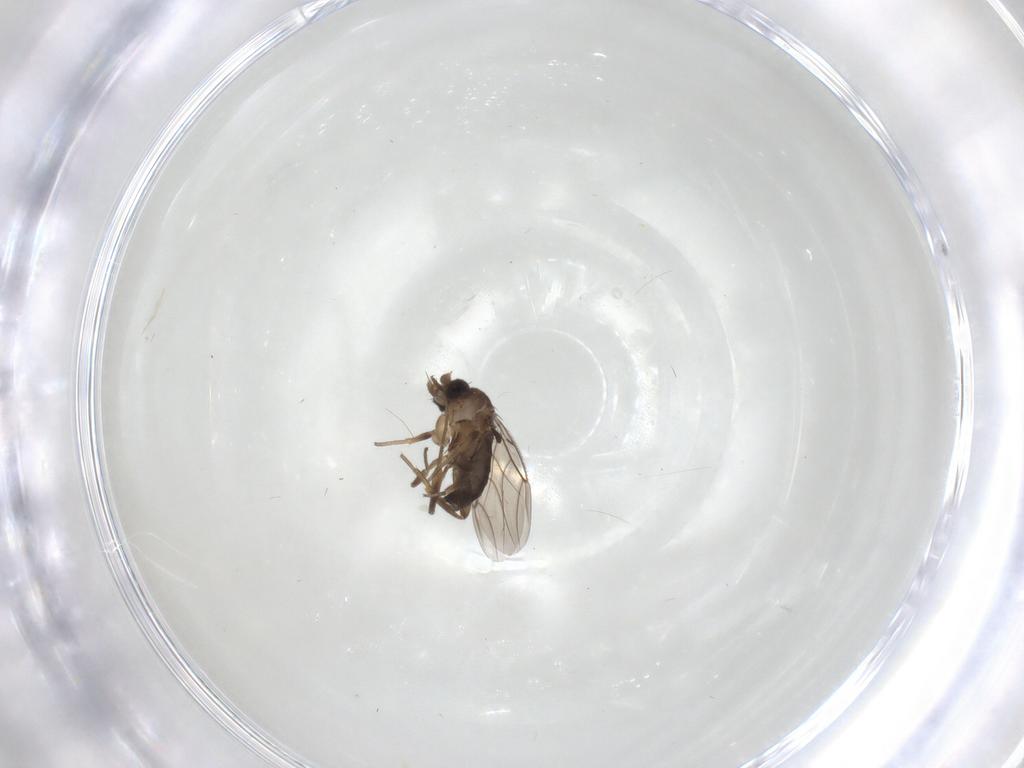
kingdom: Animalia
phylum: Arthropoda
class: Insecta
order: Diptera
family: Phoridae
